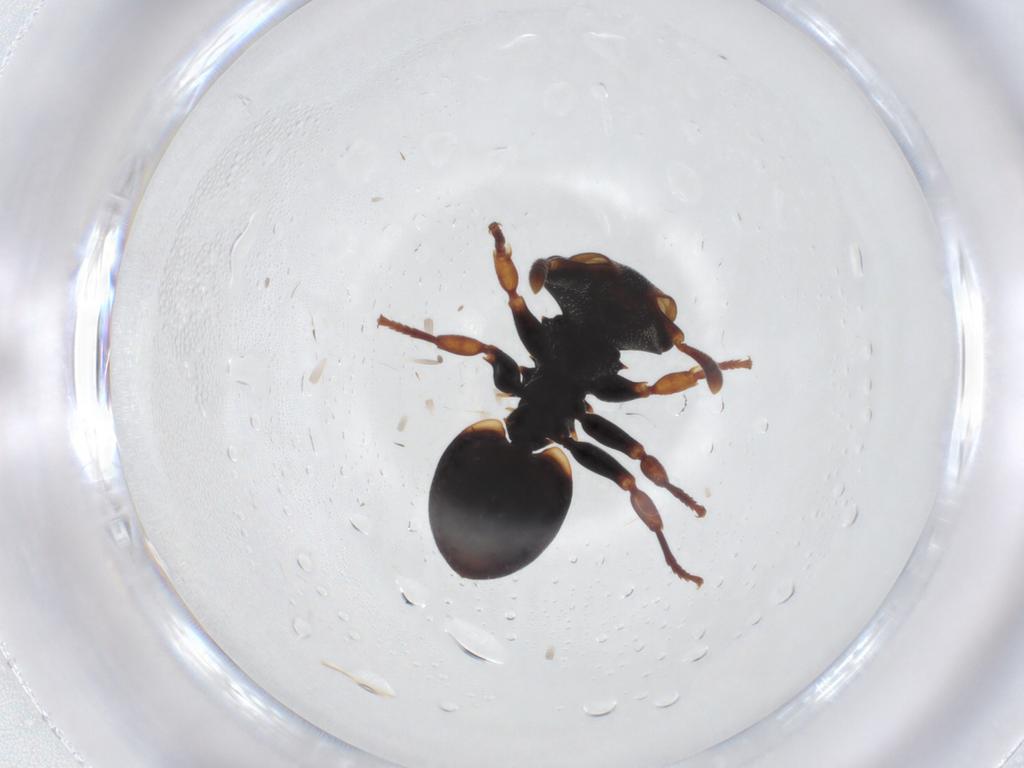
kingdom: Animalia
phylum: Arthropoda
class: Insecta
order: Hymenoptera
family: Formicidae
